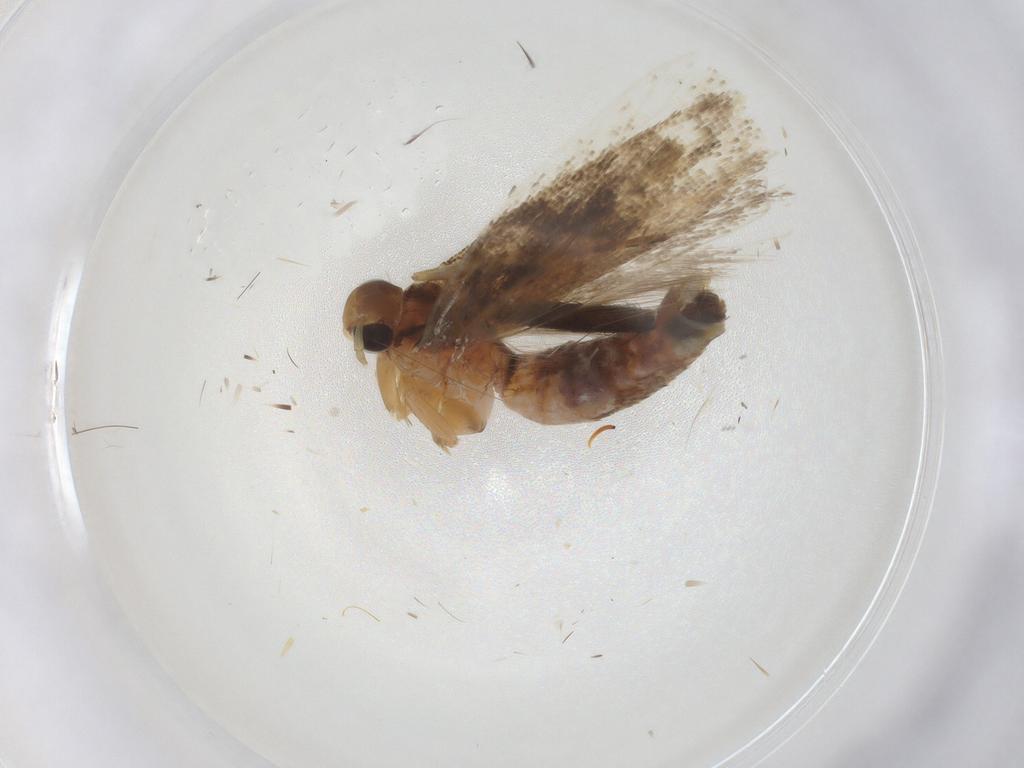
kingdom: Animalia
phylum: Arthropoda
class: Insecta
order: Lepidoptera
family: Gelechiidae
